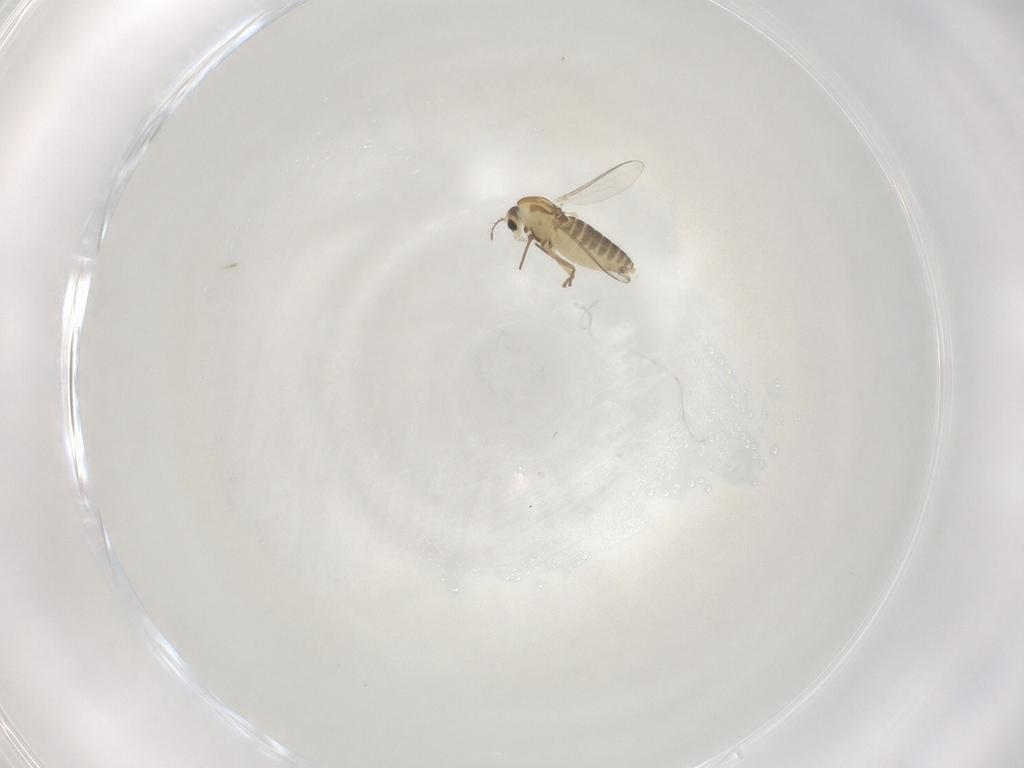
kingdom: Animalia
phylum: Arthropoda
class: Insecta
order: Diptera
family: Chironomidae
